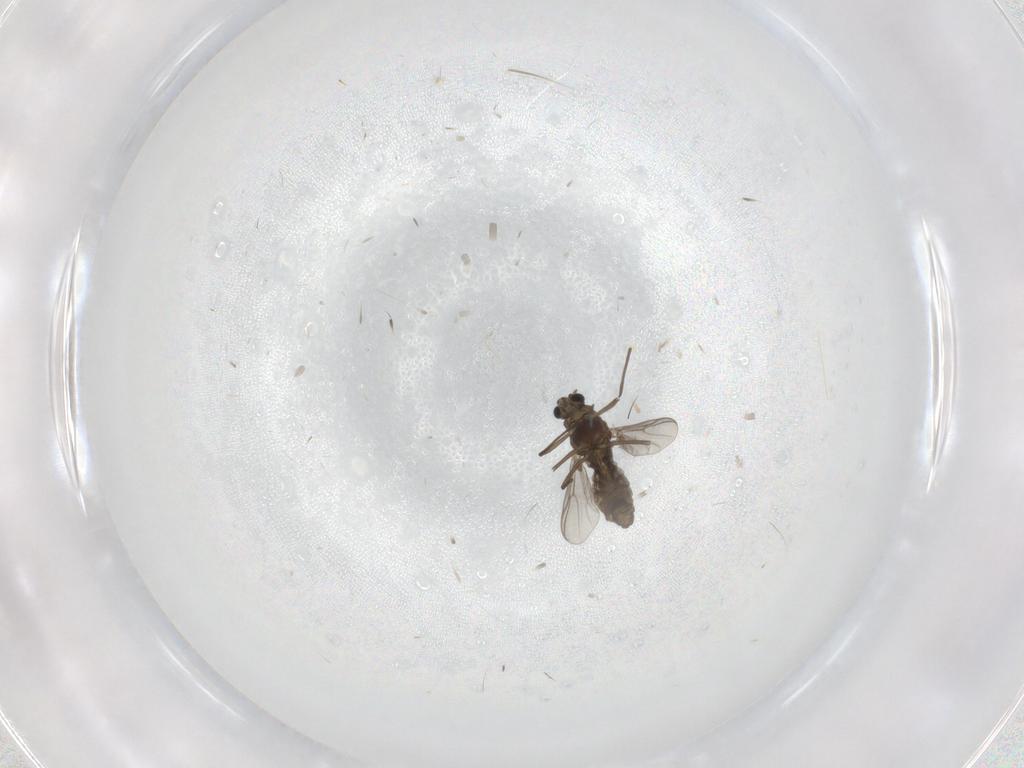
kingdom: Animalia
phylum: Arthropoda
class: Insecta
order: Diptera
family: Chironomidae
